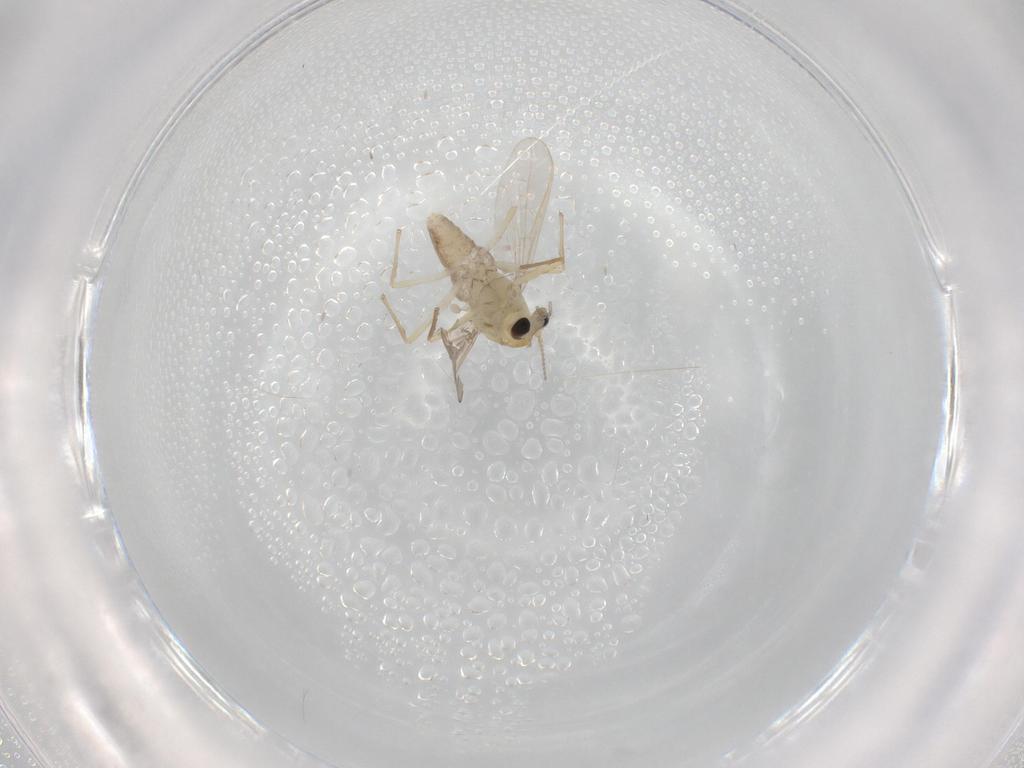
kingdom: Animalia
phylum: Arthropoda
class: Insecta
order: Diptera
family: Chironomidae
